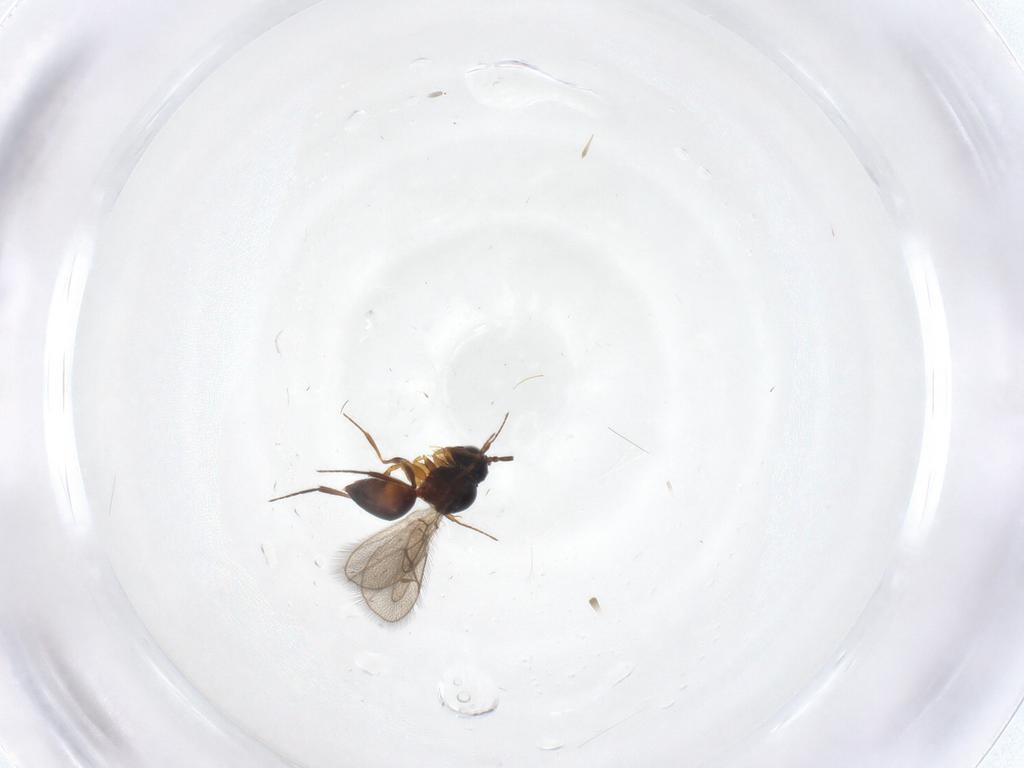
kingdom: Animalia
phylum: Arthropoda
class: Insecta
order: Hymenoptera
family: Figitidae
